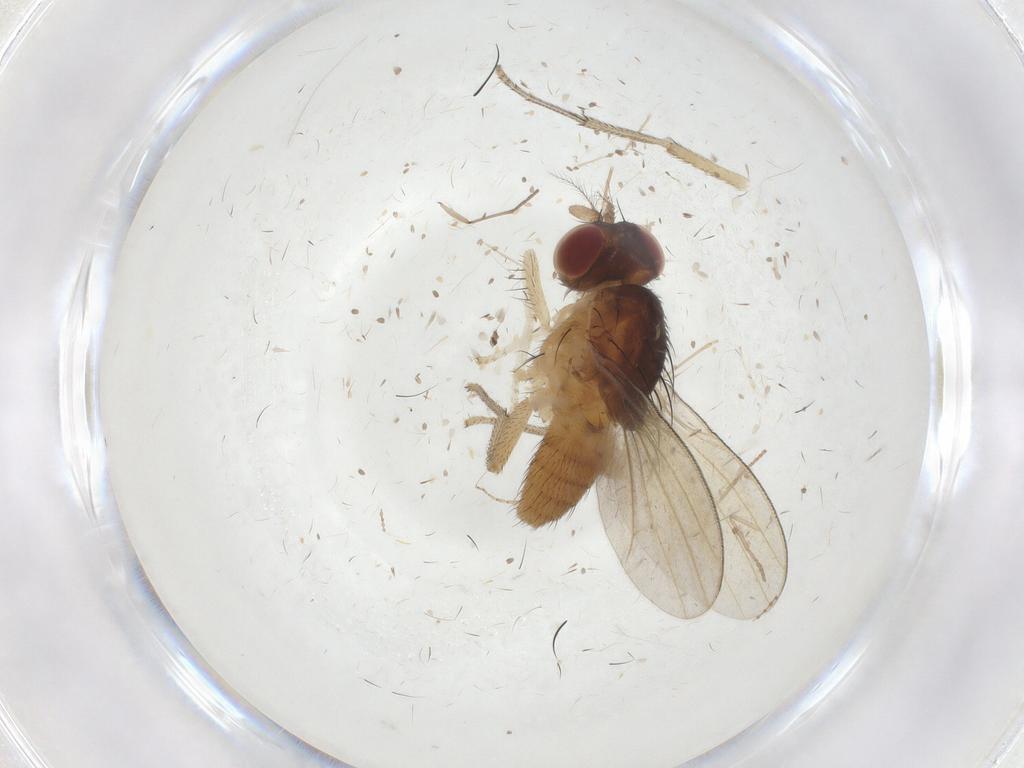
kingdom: Animalia
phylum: Arthropoda
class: Insecta
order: Diptera
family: Lauxaniidae
